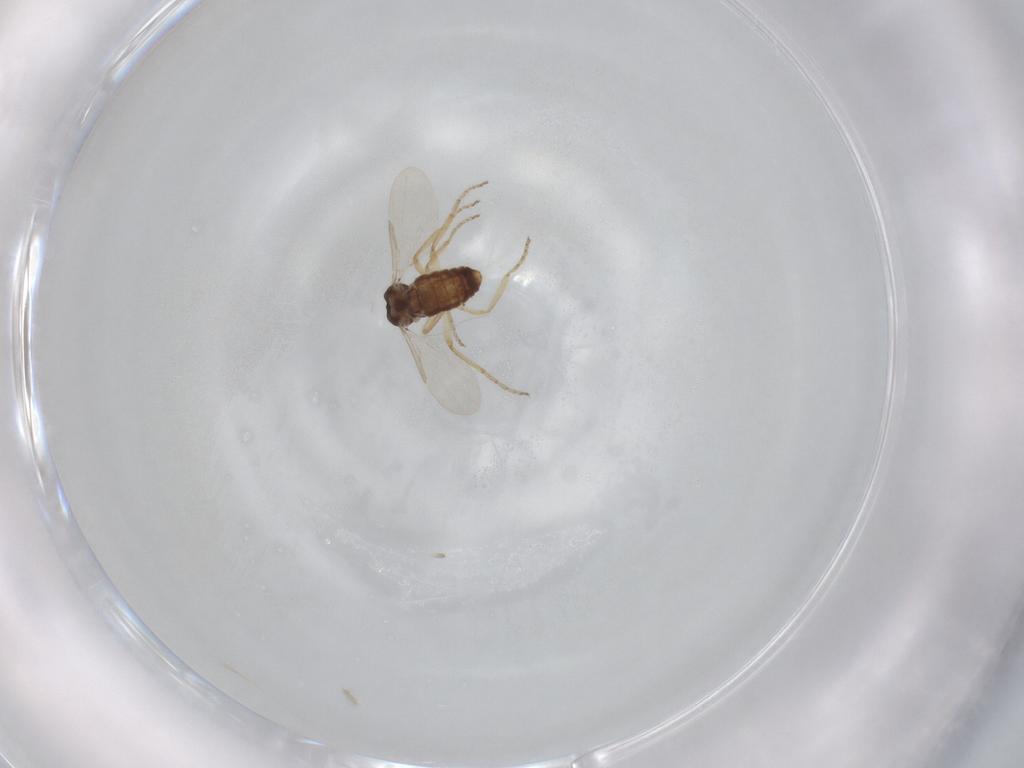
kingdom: Animalia
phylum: Arthropoda
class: Insecta
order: Diptera
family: Ceratopogonidae
